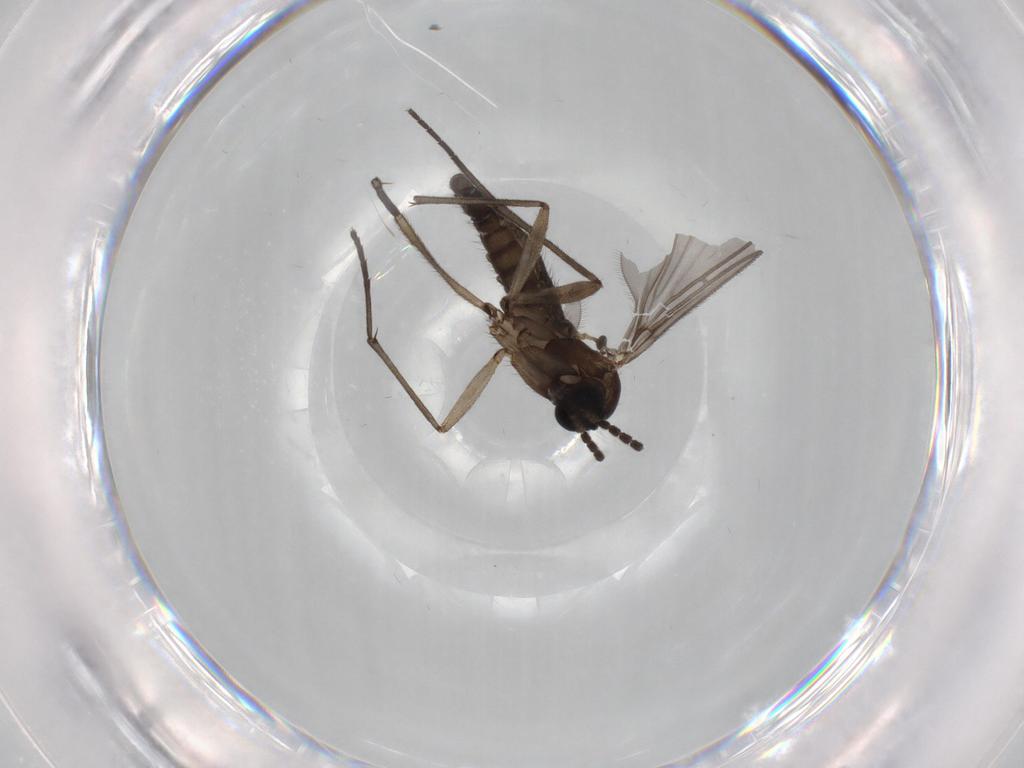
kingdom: Animalia
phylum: Arthropoda
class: Insecta
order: Diptera
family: Sciaridae
